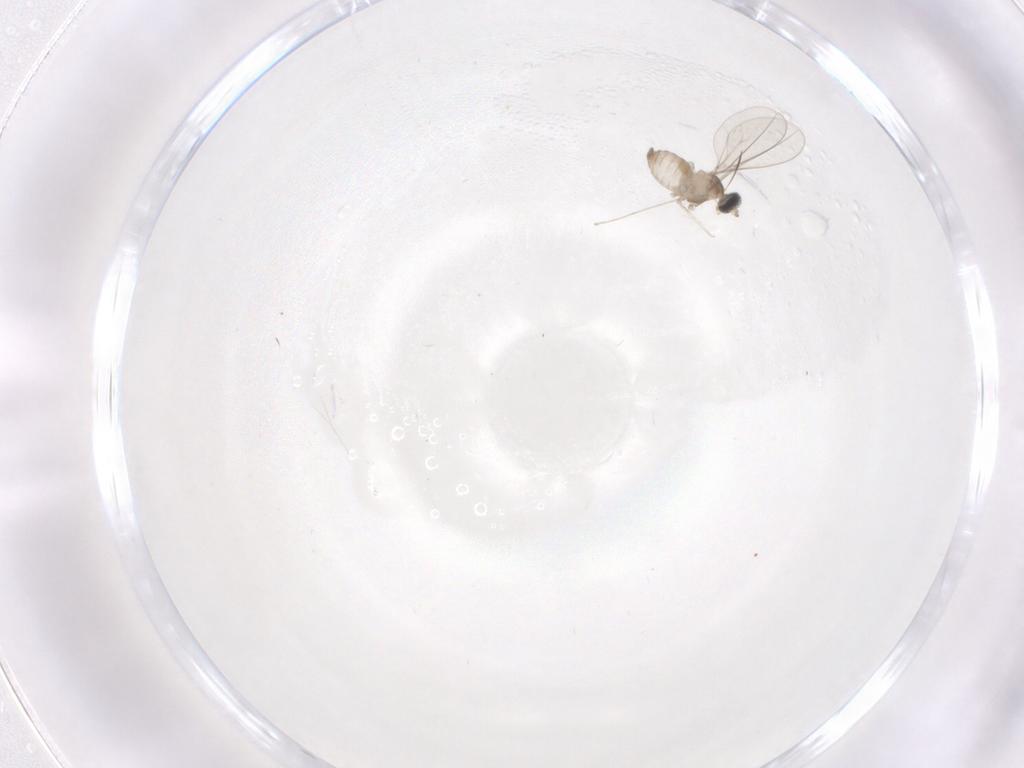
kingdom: Animalia
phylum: Arthropoda
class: Insecta
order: Diptera
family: Cecidomyiidae
